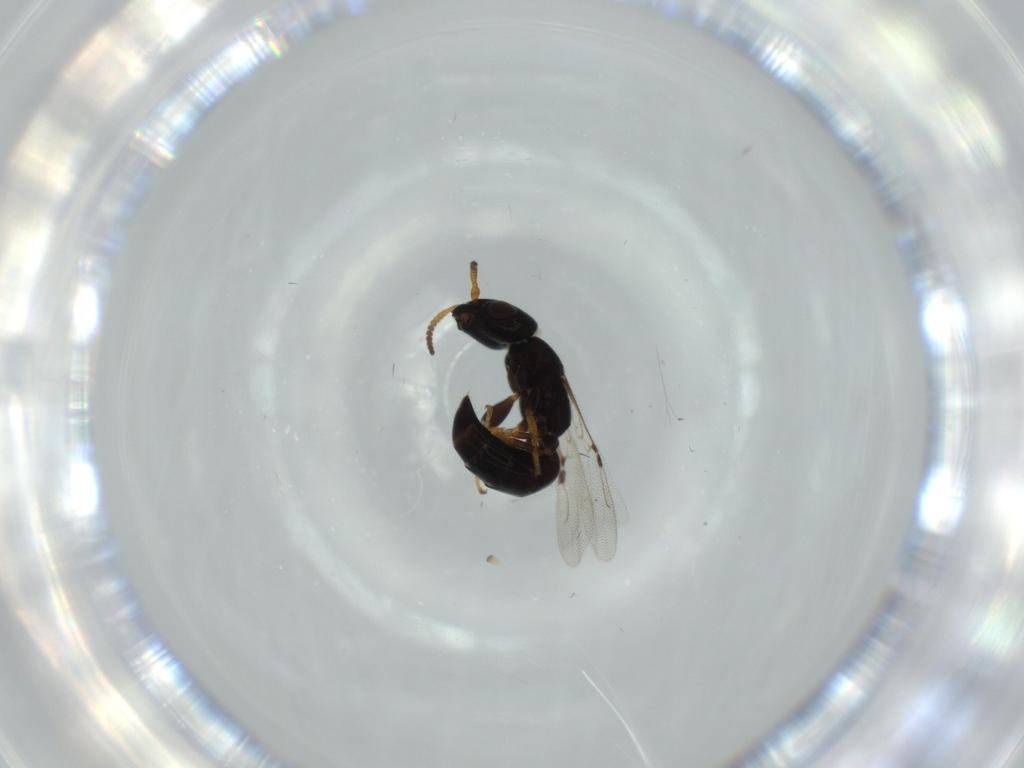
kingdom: Animalia
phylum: Arthropoda
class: Insecta
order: Hymenoptera
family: Bethylidae
